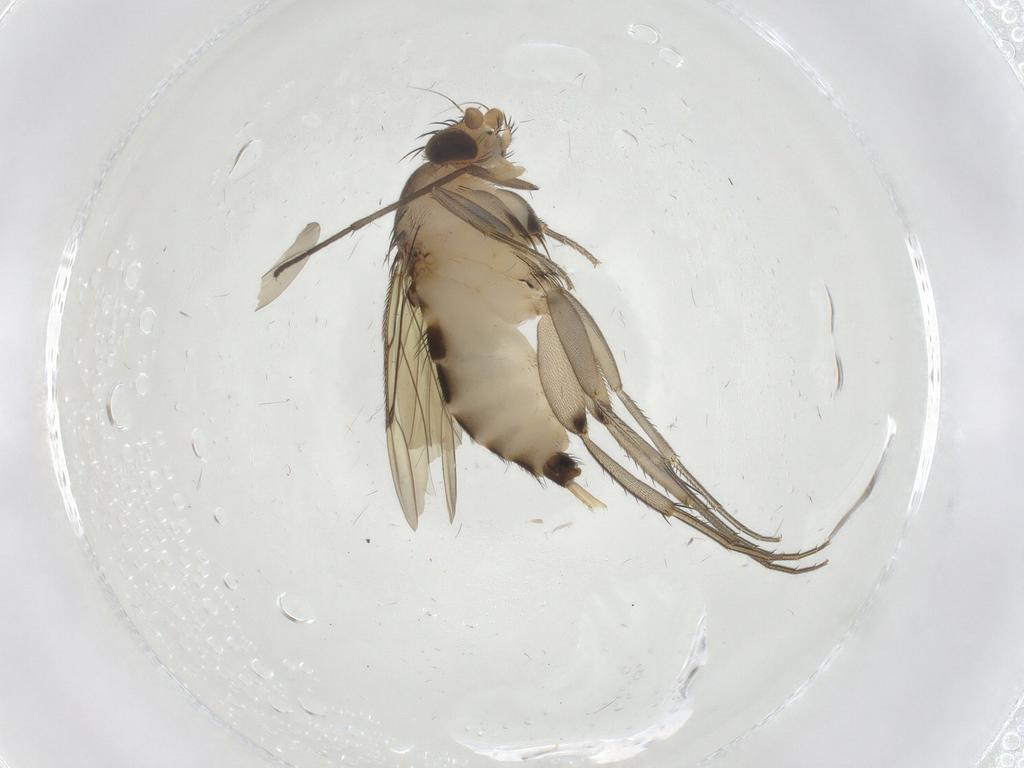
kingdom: Animalia
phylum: Arthropoda
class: Insecta
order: Diptera
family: Phoridae
